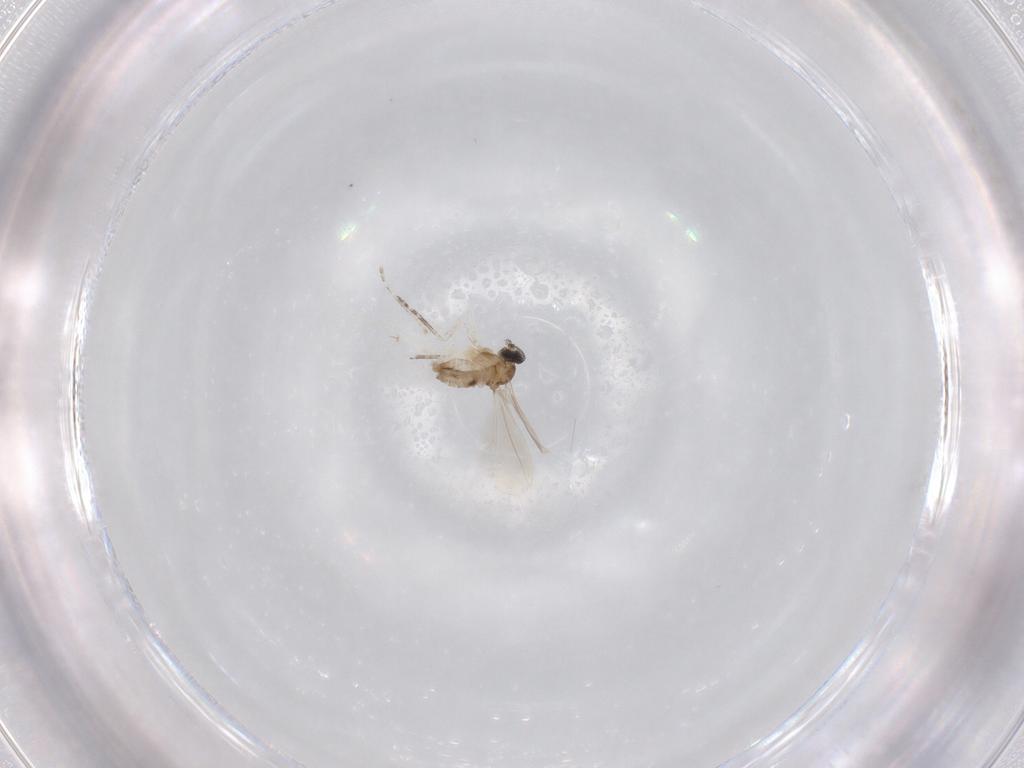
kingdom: Animalia
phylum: Arthropoda
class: Insecta
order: Diptera
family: Cecidomyiidae
